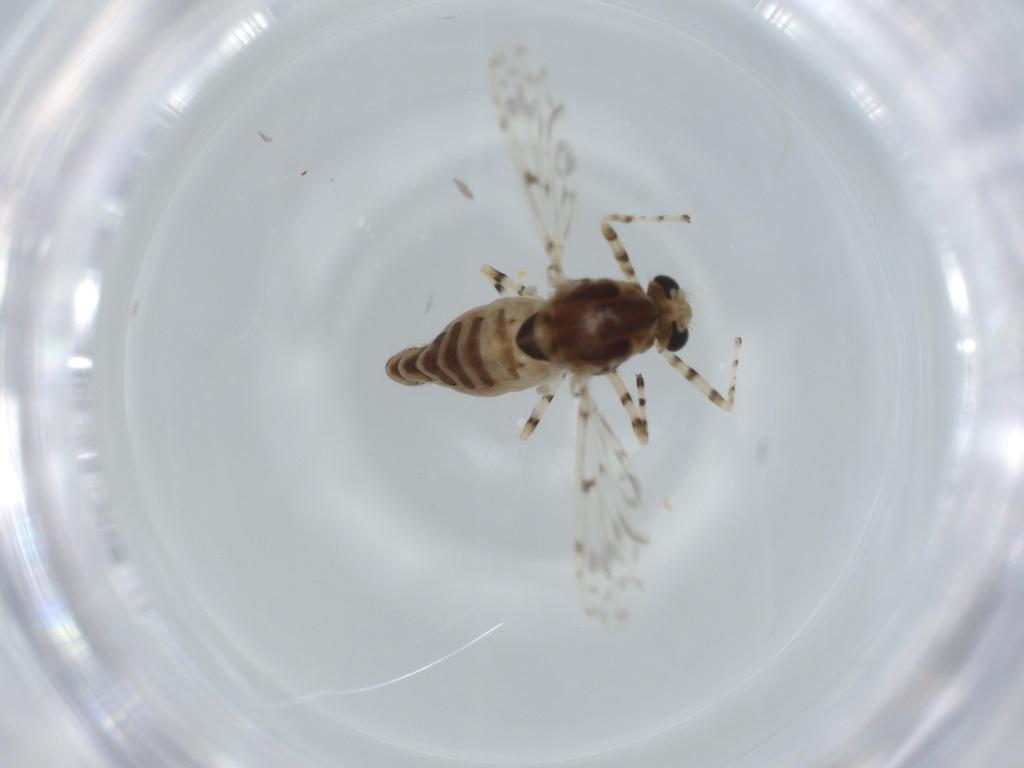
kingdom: Animalia
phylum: Arthropoda
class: Insecta
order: Diptera
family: Chironomidae
